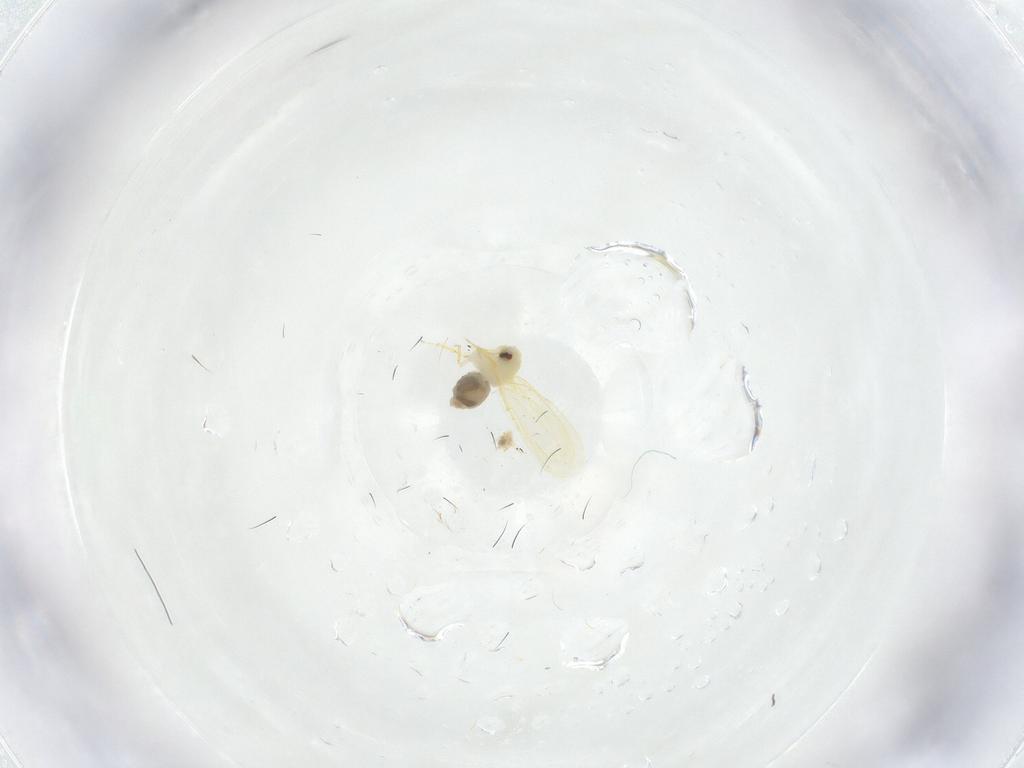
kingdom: Animalia
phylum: Arthropoda
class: Insecta
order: Hemiptera
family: Aleyrodidae
